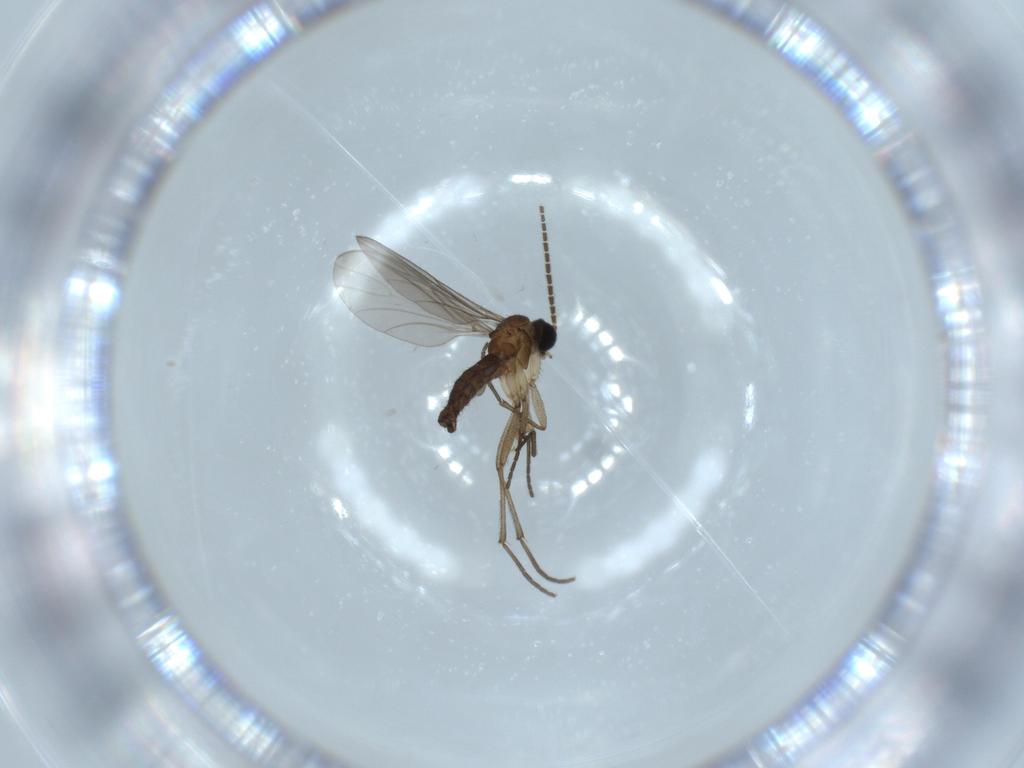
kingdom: Animalia
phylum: Arthropoda
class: Insecta
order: Diptera
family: Sciaridae
